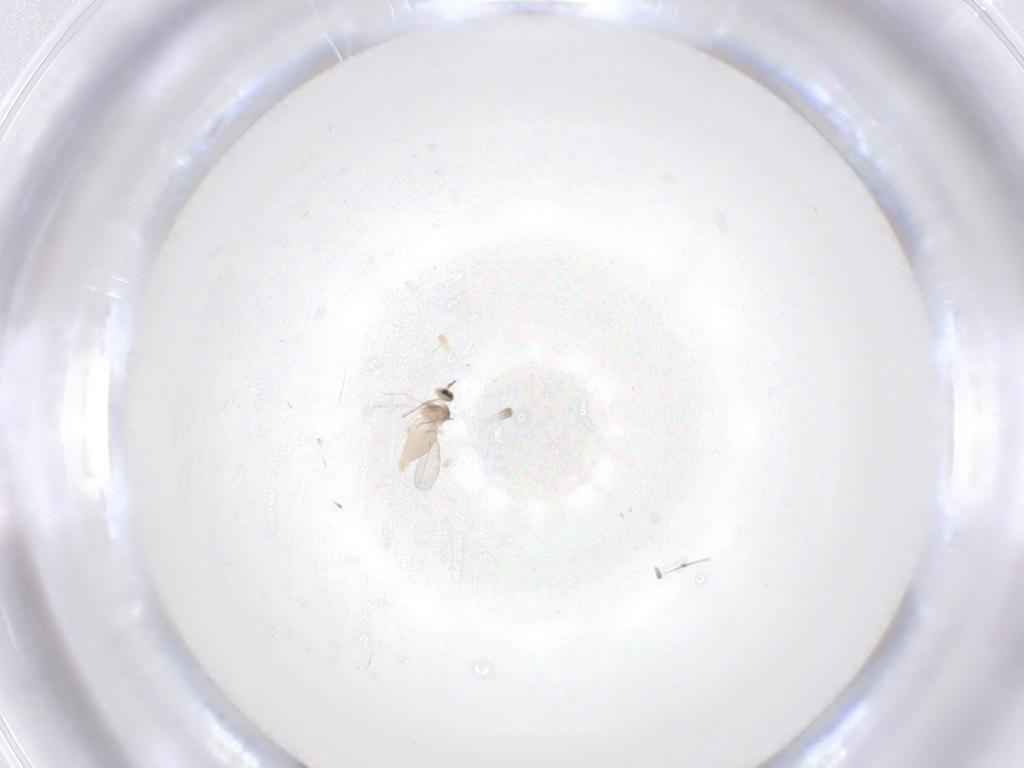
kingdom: Animalia
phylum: Arthropoda
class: Insecta
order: Diptera
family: Cecidomyiidae
